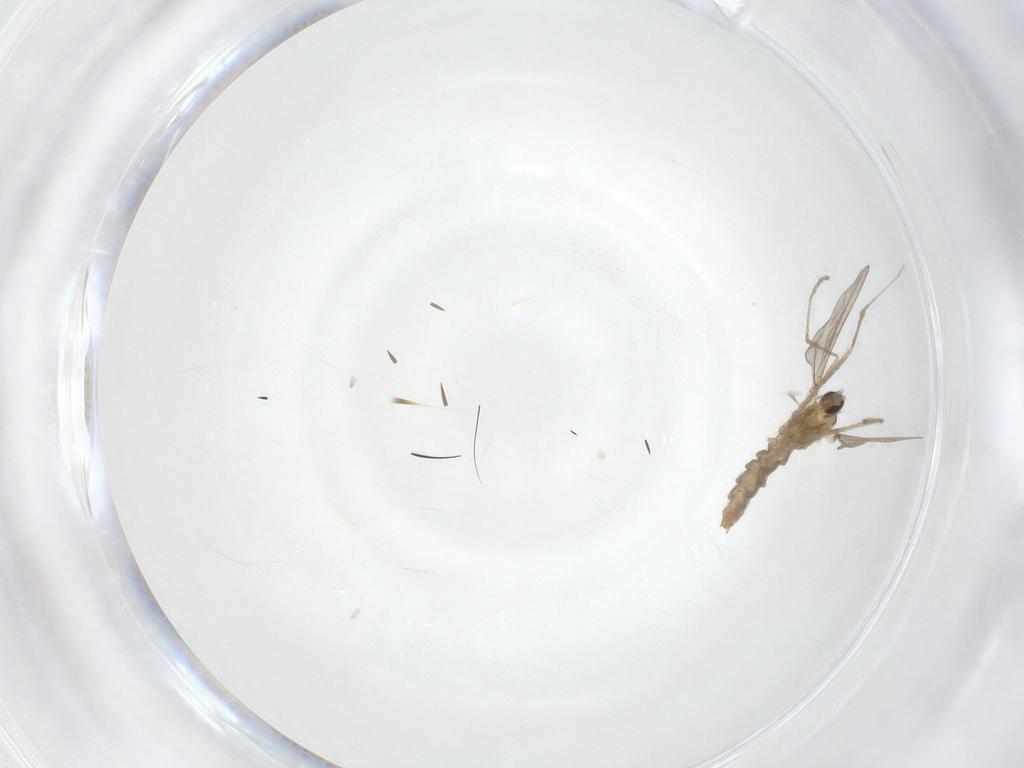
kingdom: Animalia
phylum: Arthropoda
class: Insecta
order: Diptera
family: Cecidomyiidae
